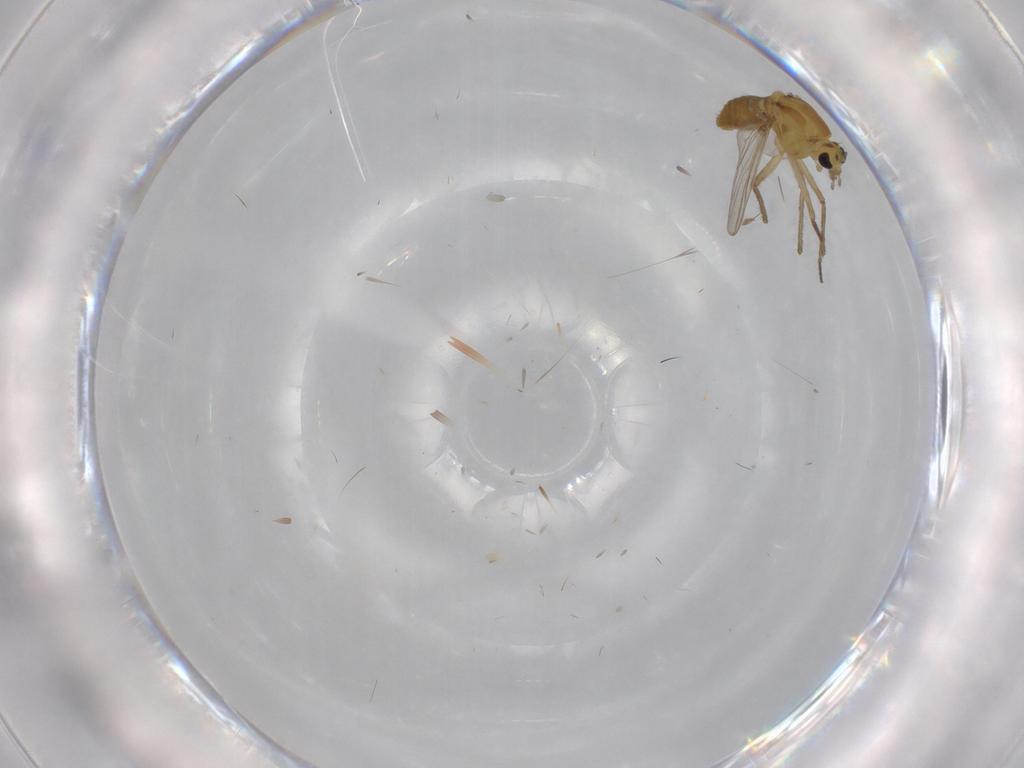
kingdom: Animalia
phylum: Arthropoda
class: Insecta
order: Diptera
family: Chironomidae
